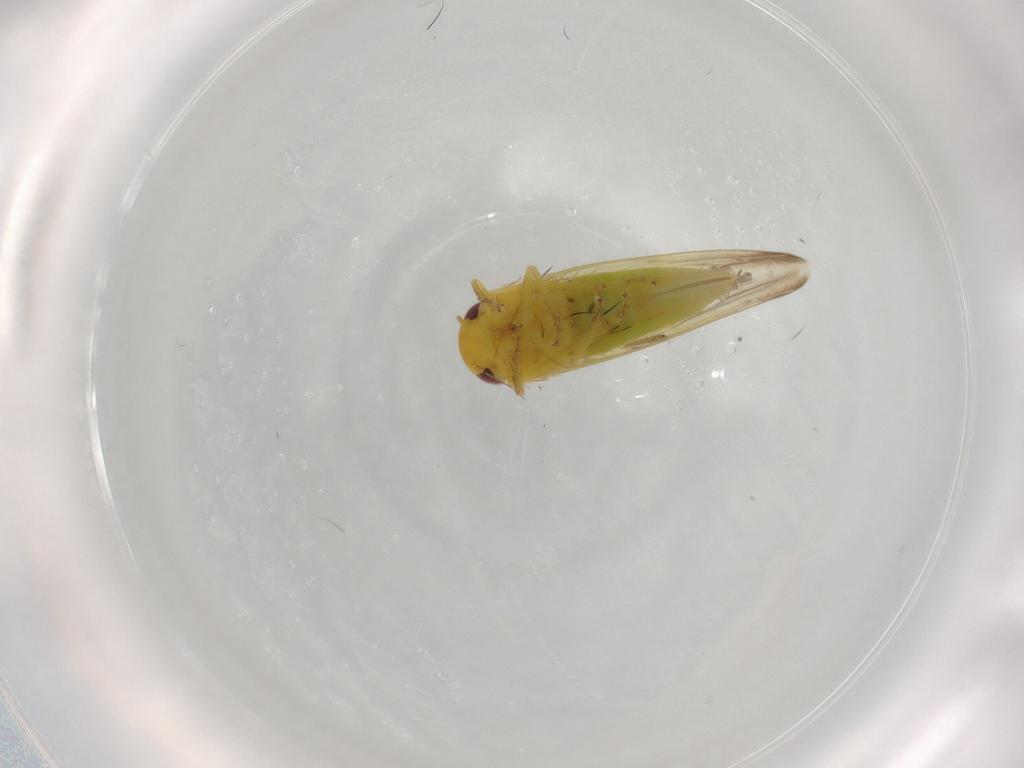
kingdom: Animalia
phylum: Arthropoda
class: Insecta
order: Hemiptera
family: Cicadellidae
